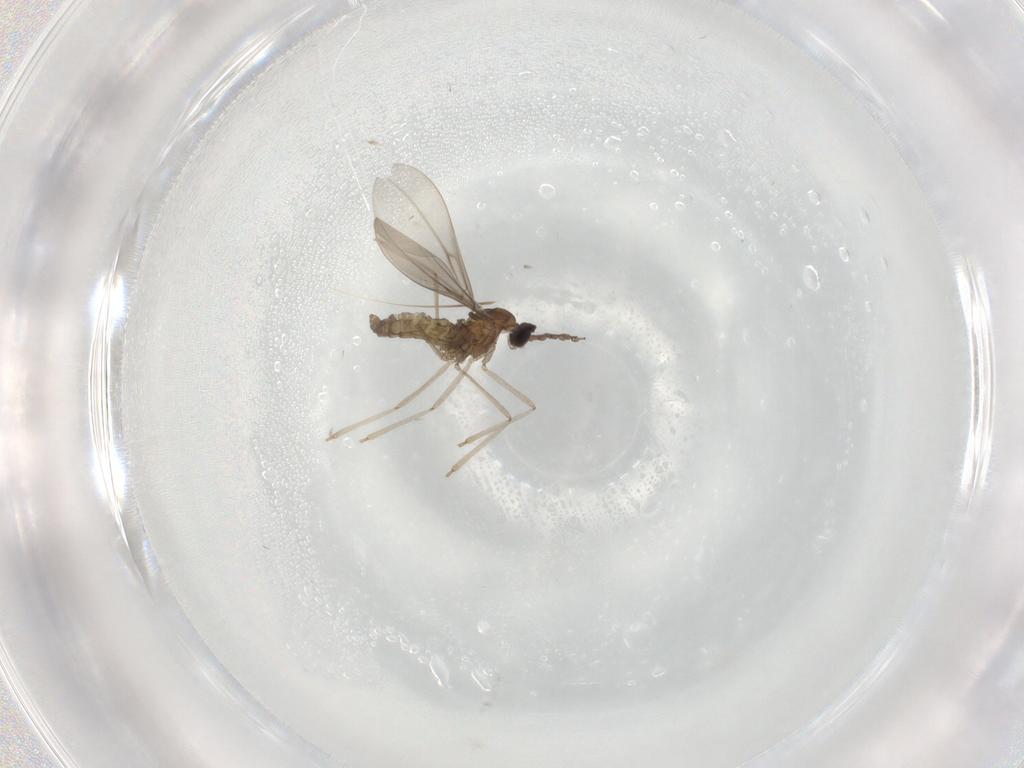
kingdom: Animalia
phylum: Arthropoda
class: Insecta
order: Diptera
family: Cecidomyiidae
